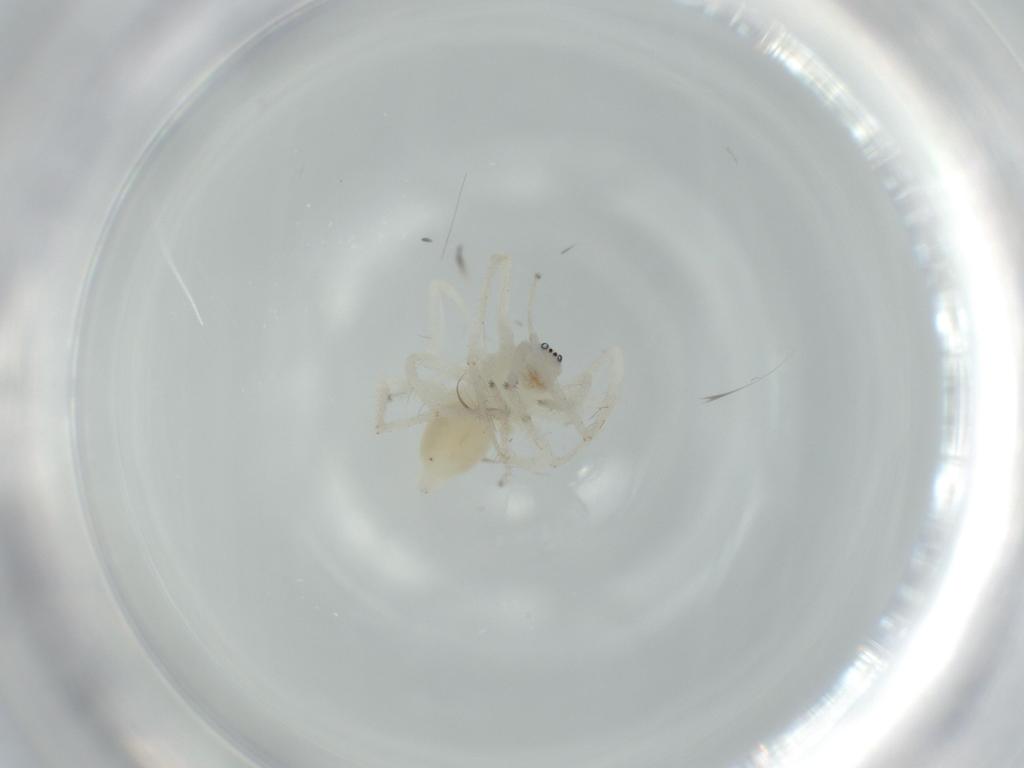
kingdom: Animalia
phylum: Arthropoda
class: Arachnida
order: Araneae
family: Anyphaenidae
